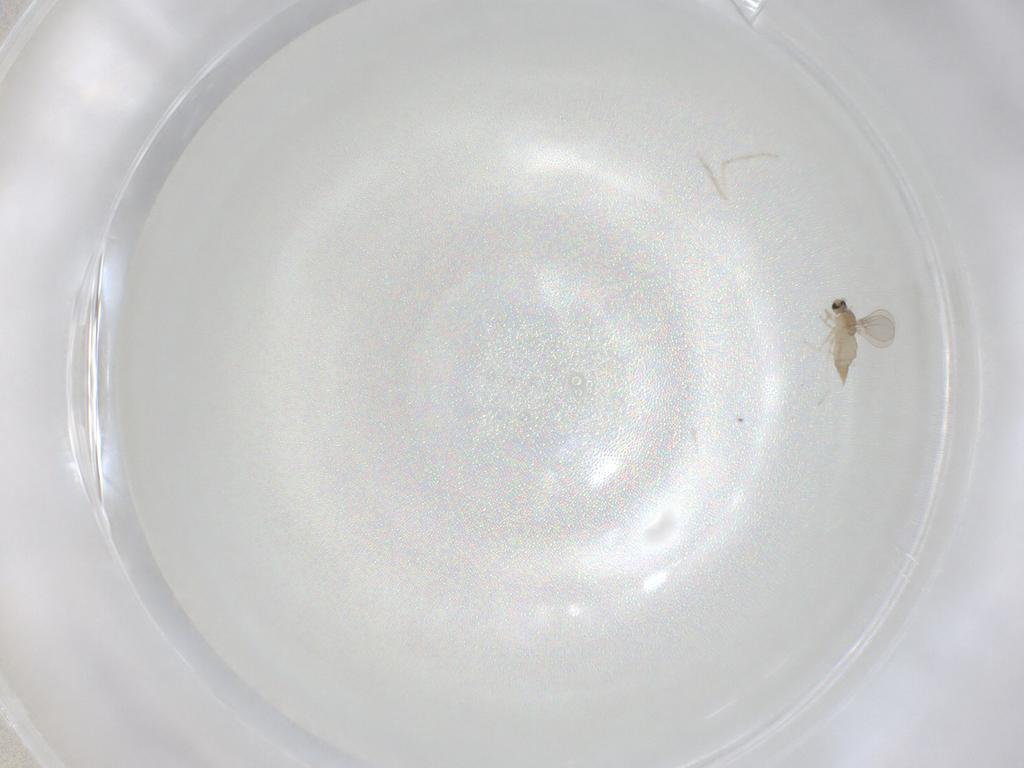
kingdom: Animalia
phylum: Arthropoda
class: Insecta
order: Diptera
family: Cecidomyiidae
